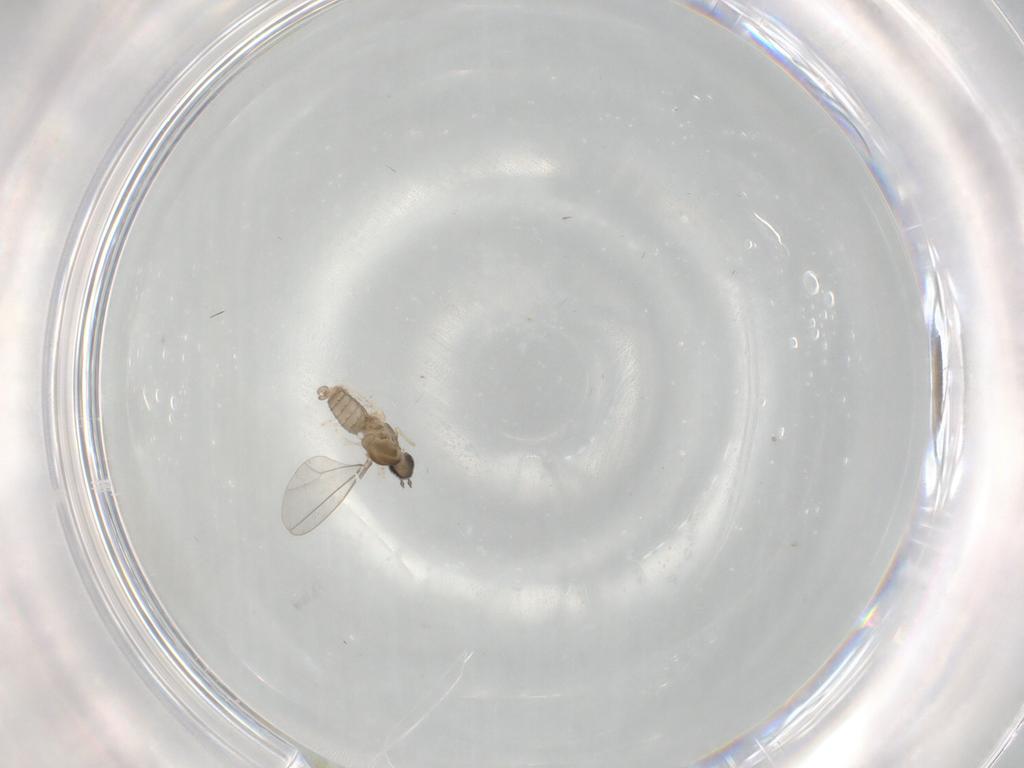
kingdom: Animalia
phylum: Arthropoda
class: Insecta
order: Diptera
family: Cecidomyiidae
